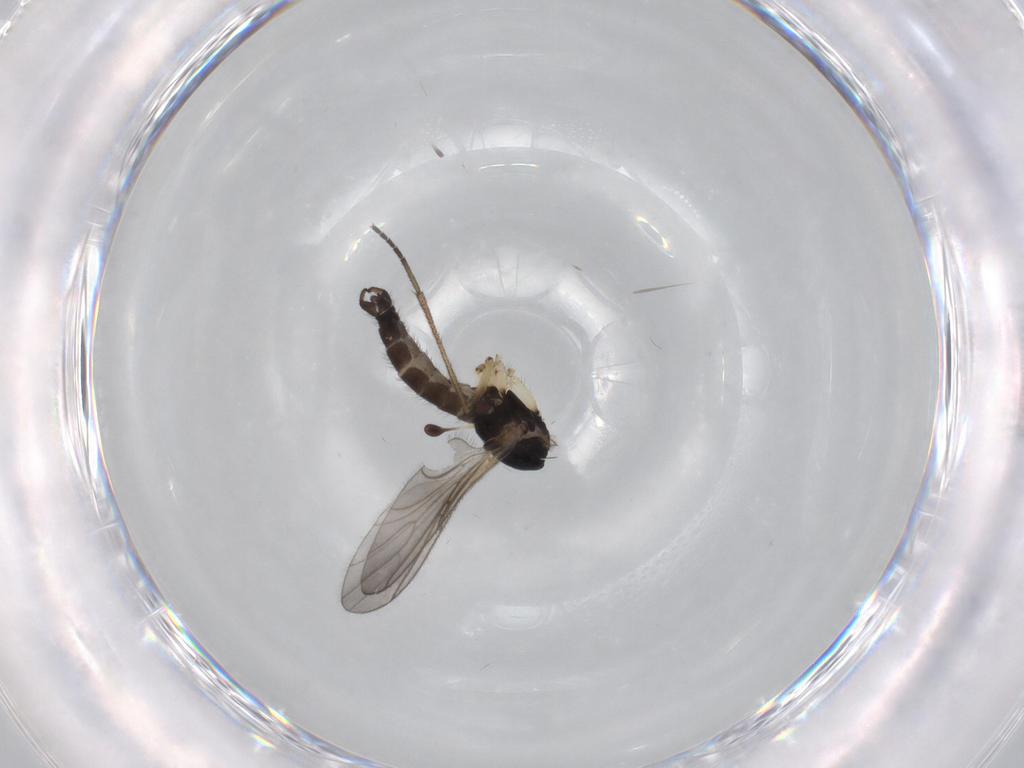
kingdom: Animalia
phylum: Arthropoda
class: Insecta
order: Diptera
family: Sciaridae
